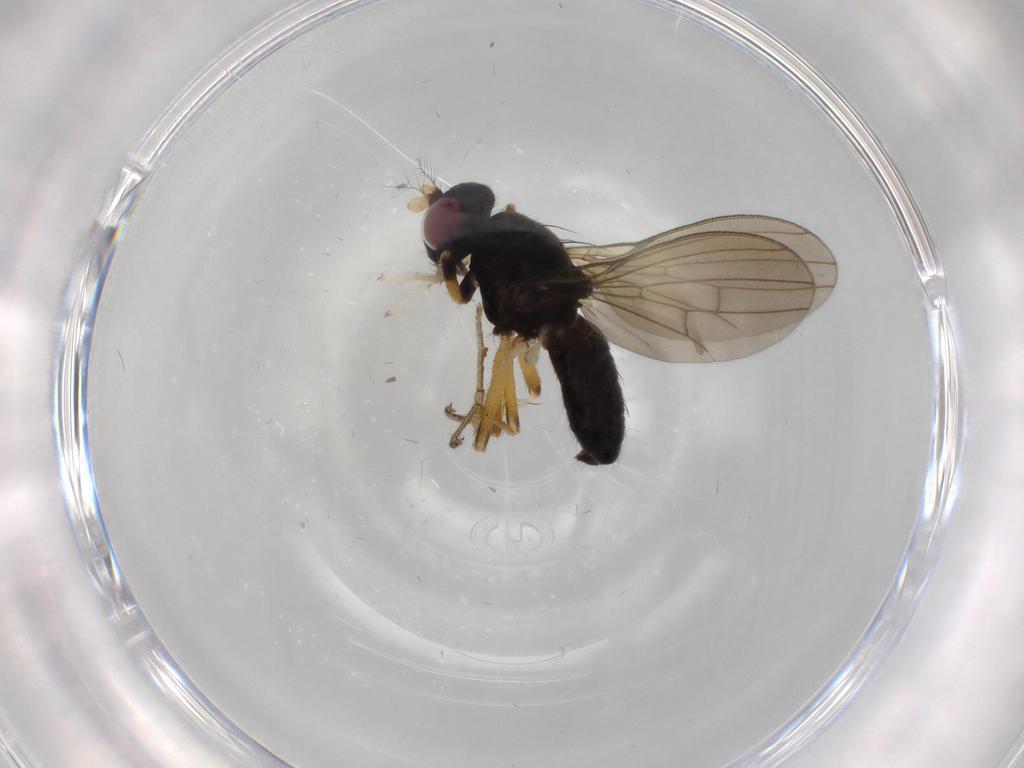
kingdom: Animalia
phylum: Arthropoda
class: Insecta
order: Diptera
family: Lauxaniidae
